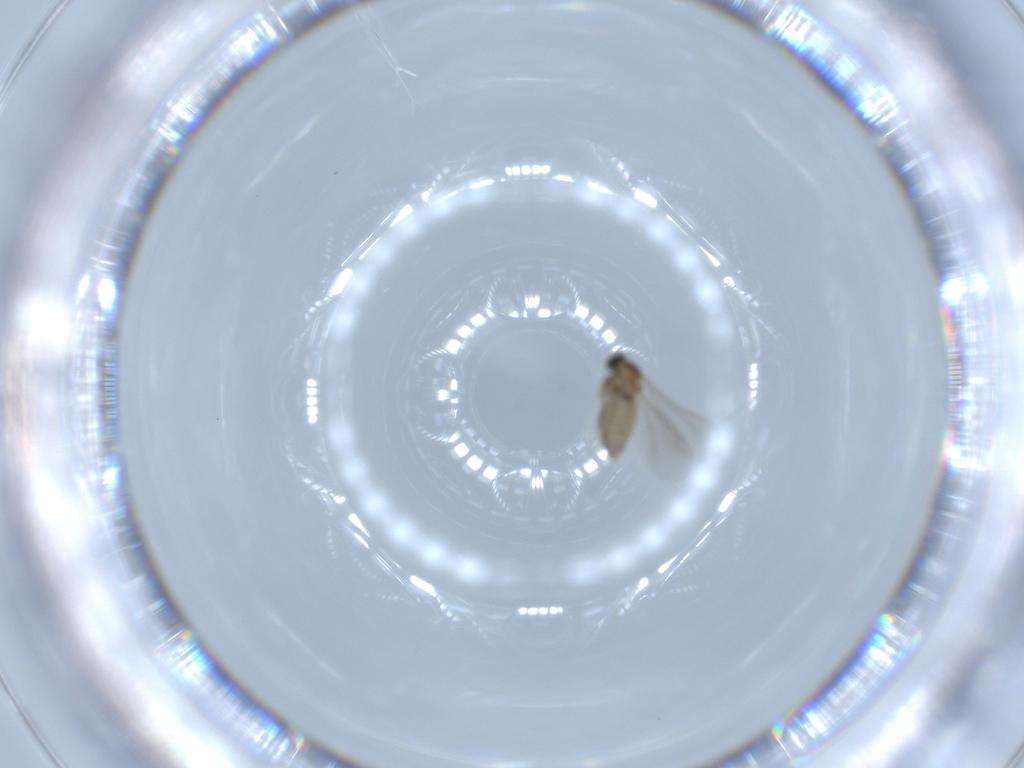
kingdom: Animalia
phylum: Arthropoda
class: Insecta
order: Diptera
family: Cecidomyiidae
